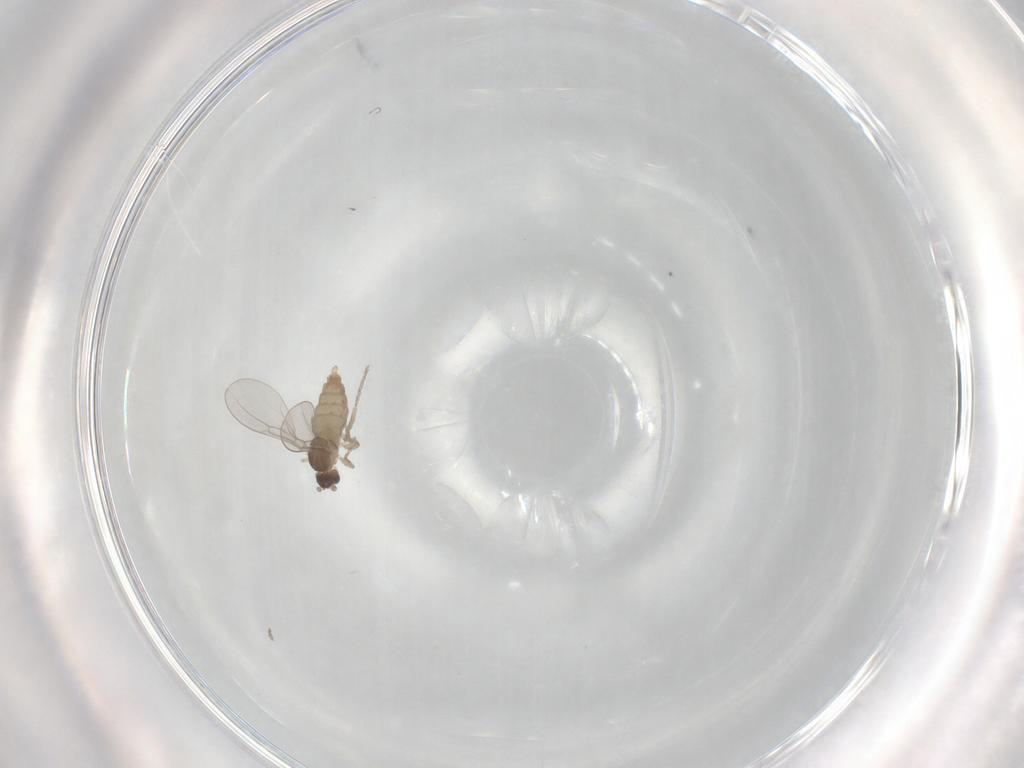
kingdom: Animalia
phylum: Arthropoda
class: Insecta
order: Diptera
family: Cecidomyiidae
